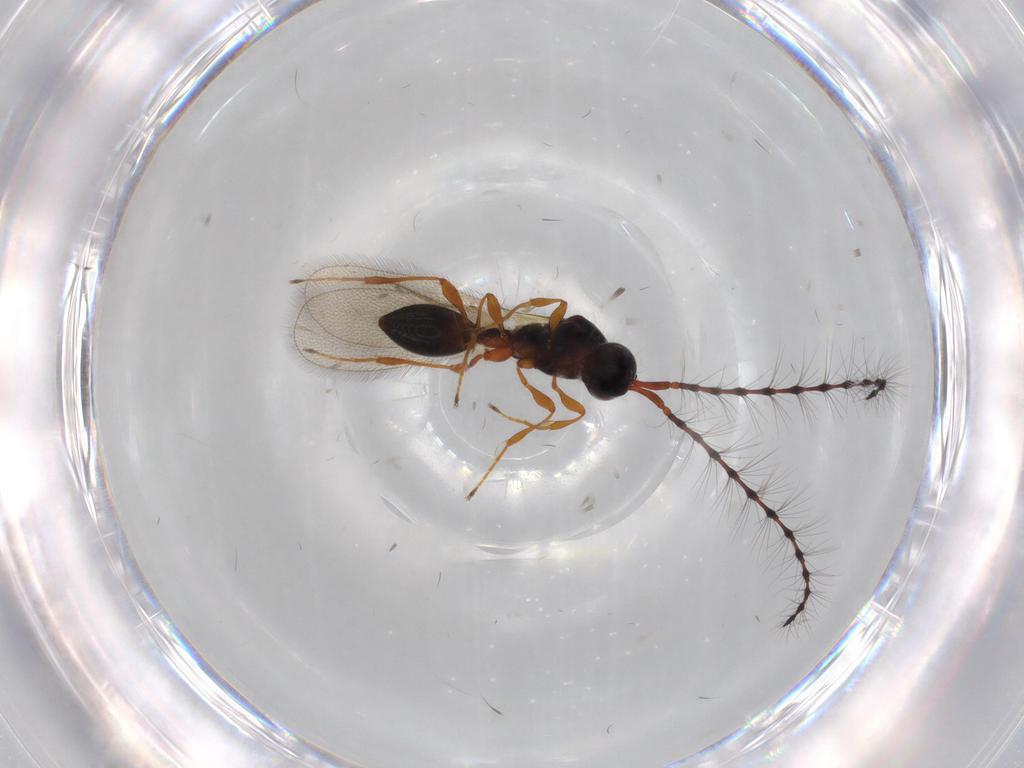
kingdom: Animalia
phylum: Arthropoda
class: Insecta
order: Hymenoptera
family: Diapriidae
